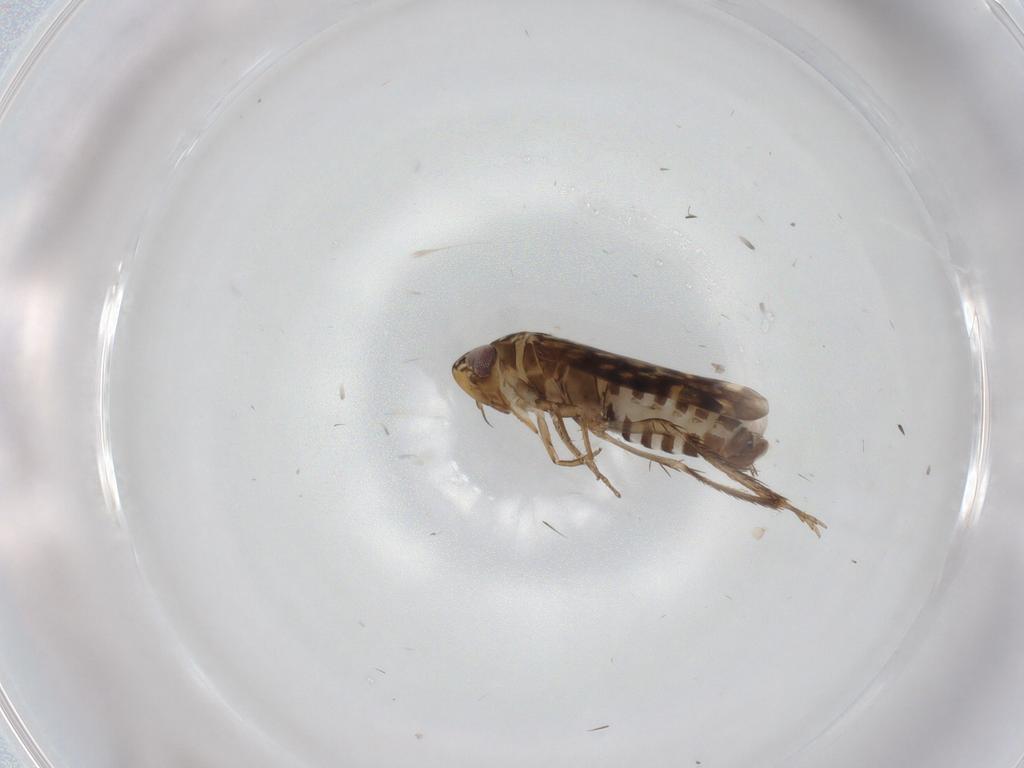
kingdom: Animalia
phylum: Arthropoda
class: Insecta
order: Hemiptera
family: Cicadellidae
